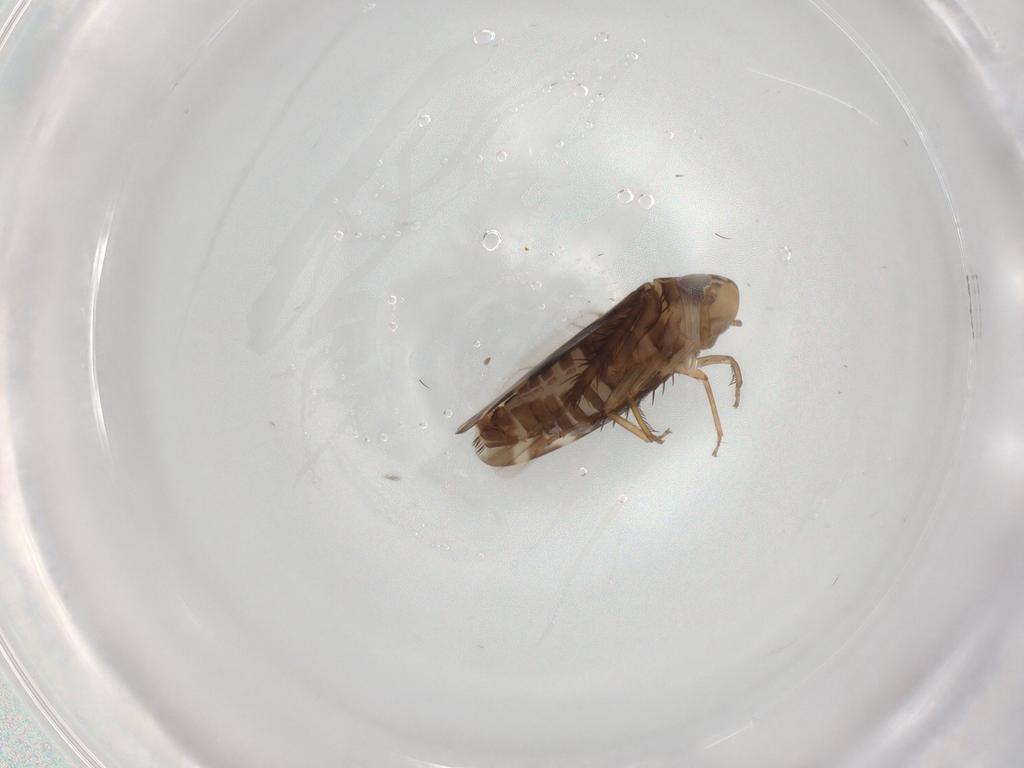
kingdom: Animalia
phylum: Arthropoda
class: Insecta
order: Hemiptera
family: Cicadellidae
